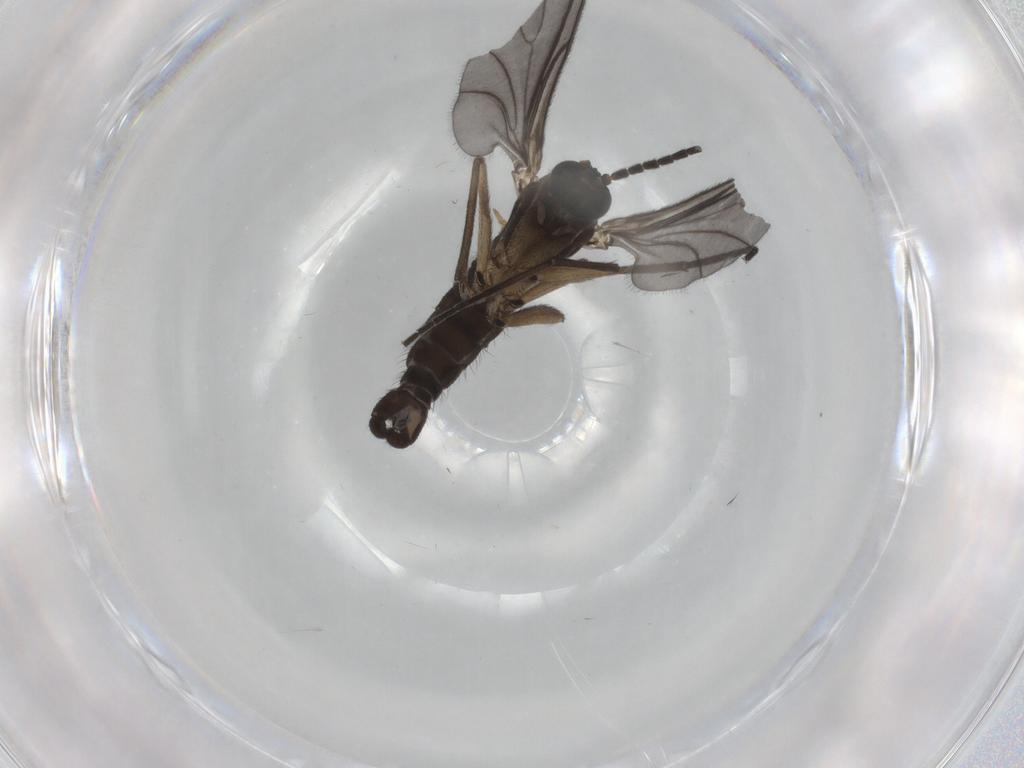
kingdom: Animalia
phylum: Arthropoda
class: Insecta
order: Diptera
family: Sciaridae
